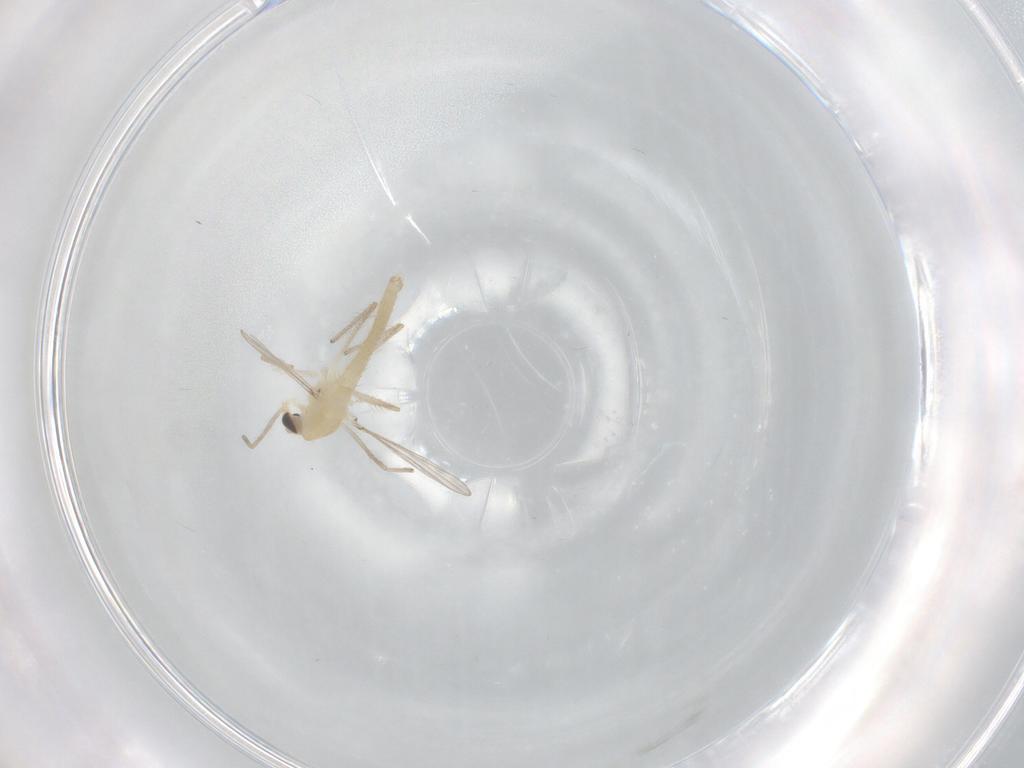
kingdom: Animalia
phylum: Arthropoda
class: Insecta
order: Diptera
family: Chironomidae
